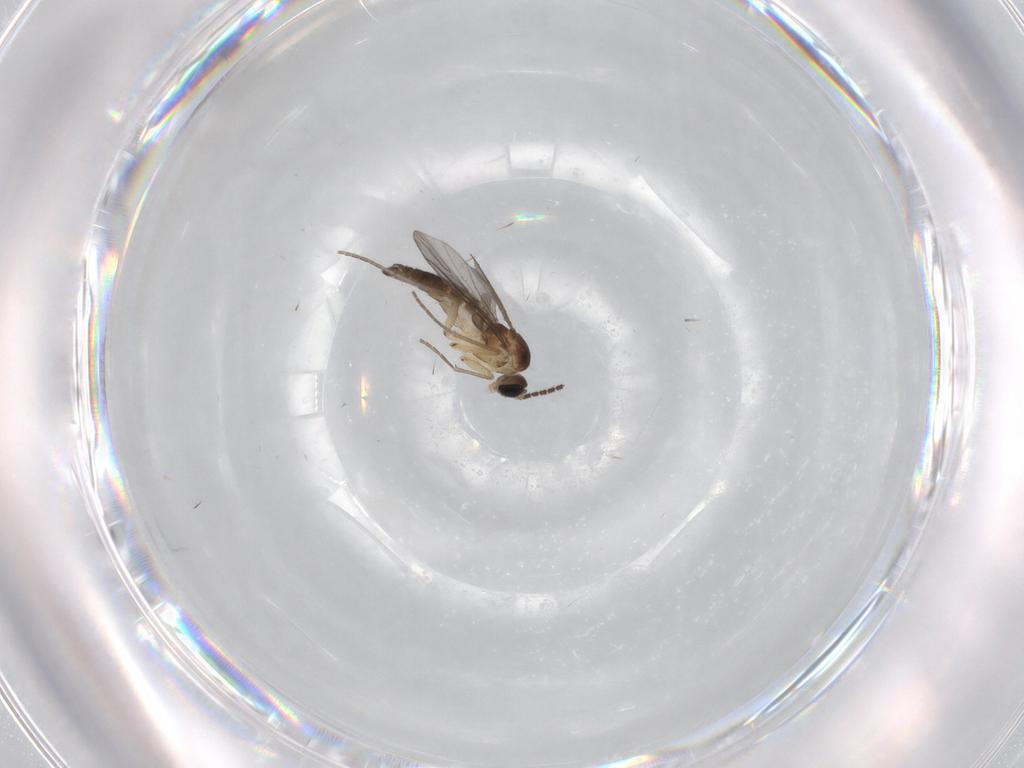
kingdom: Animalia
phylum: Arthropoda
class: Insecta
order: Diptera
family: Sciaridae
